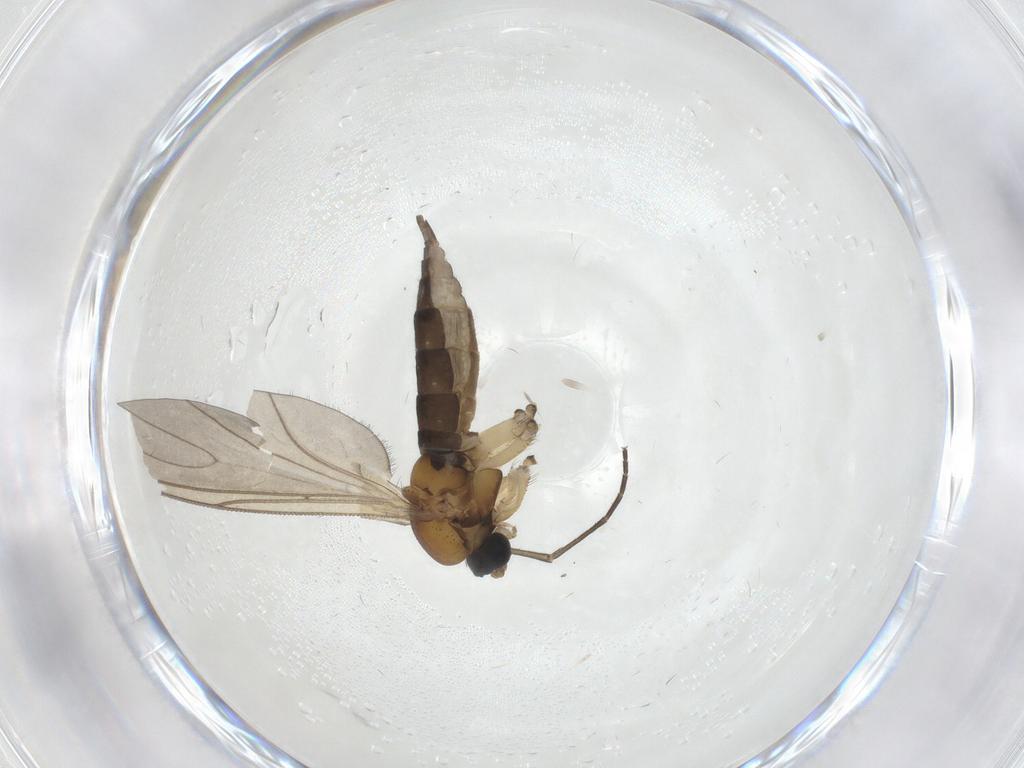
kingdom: Animalia
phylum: Arthropoda
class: Insecta
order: Diptera
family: Sciaridae
